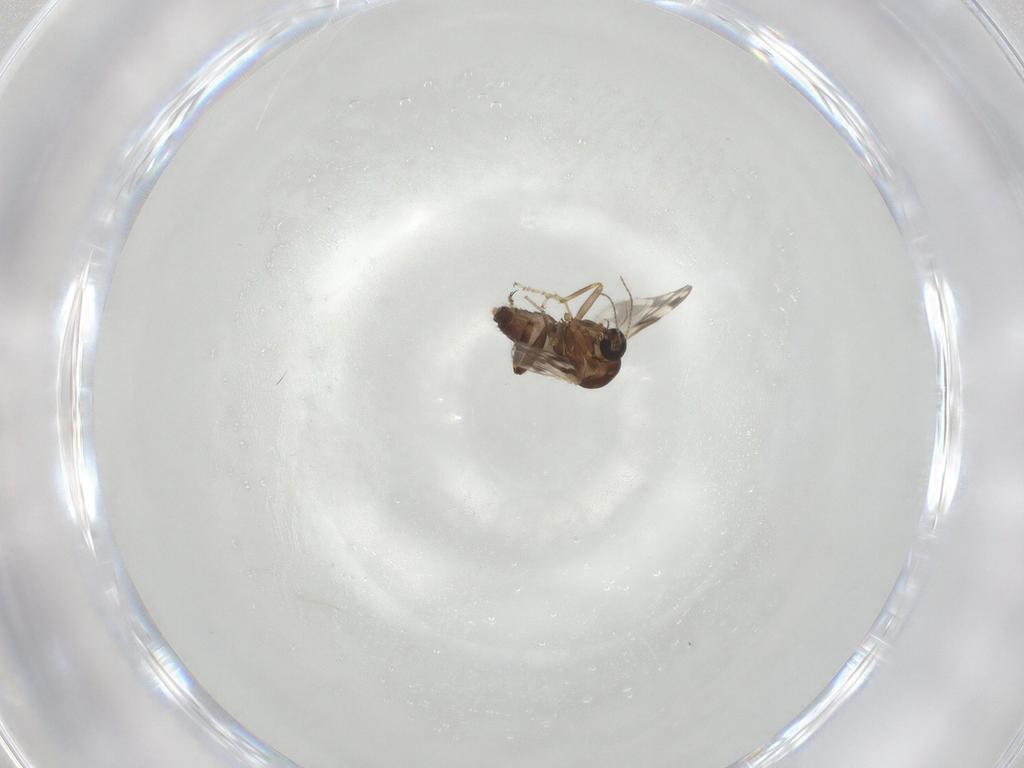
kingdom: Animalia
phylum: Arthropoda
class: Insecta
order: Diptera
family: Ceratopogonidae
